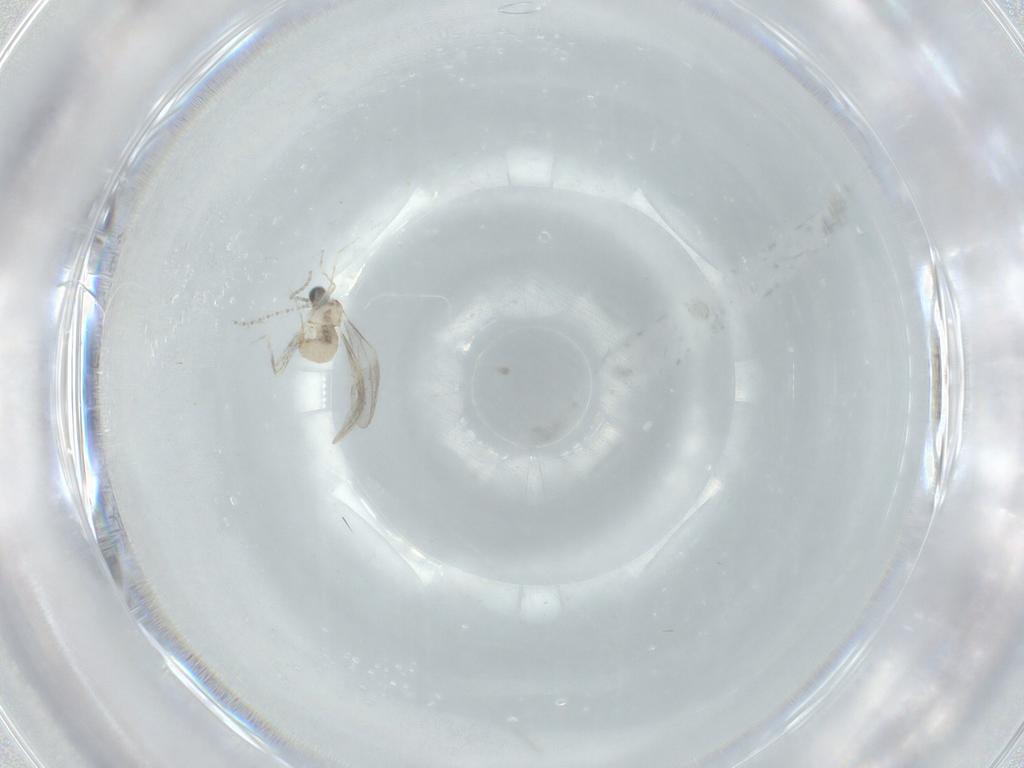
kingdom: Animalia
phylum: Arthropoda
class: Insecta
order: Diptera
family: Cecidomyiidae
